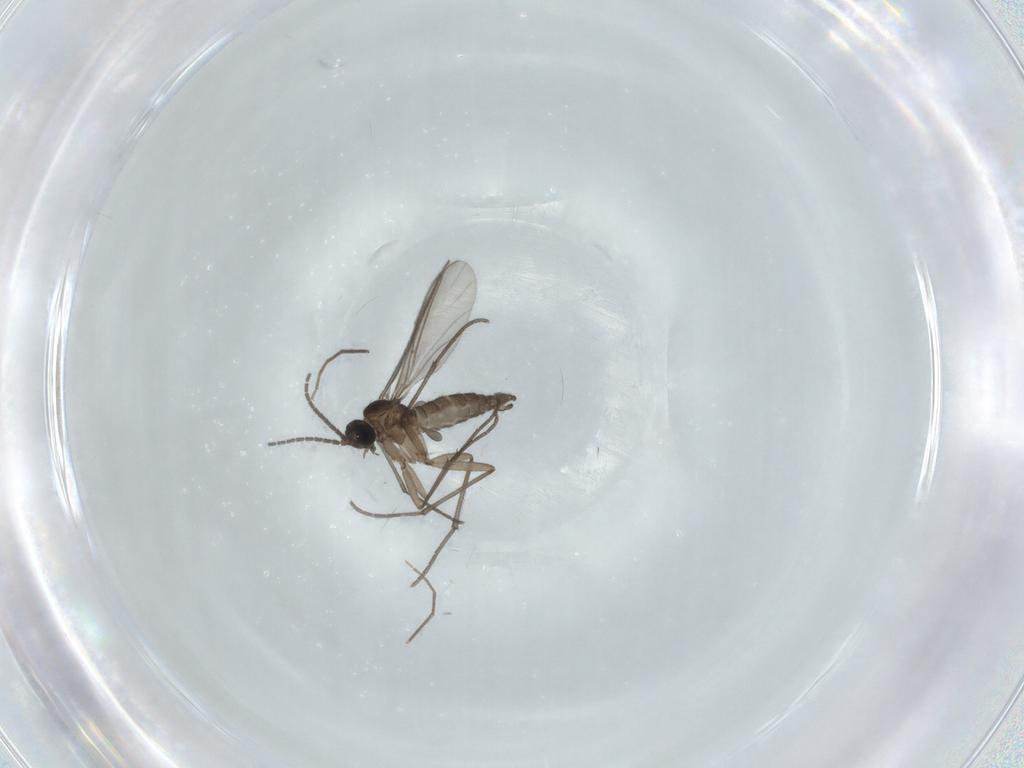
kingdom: Animalia
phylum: Arthropoda
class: Insecta
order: Diptera
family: Sciaridae
